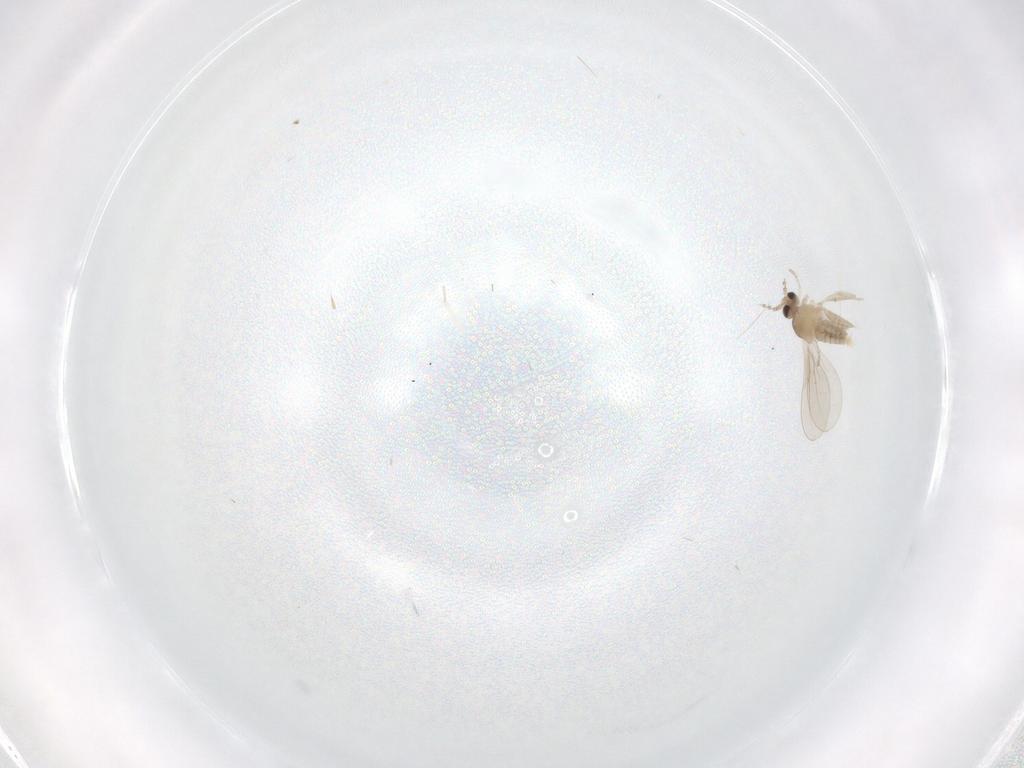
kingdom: Animalia
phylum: Arthropoda
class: Insecta
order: Diptera
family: Cecidomyiidae
